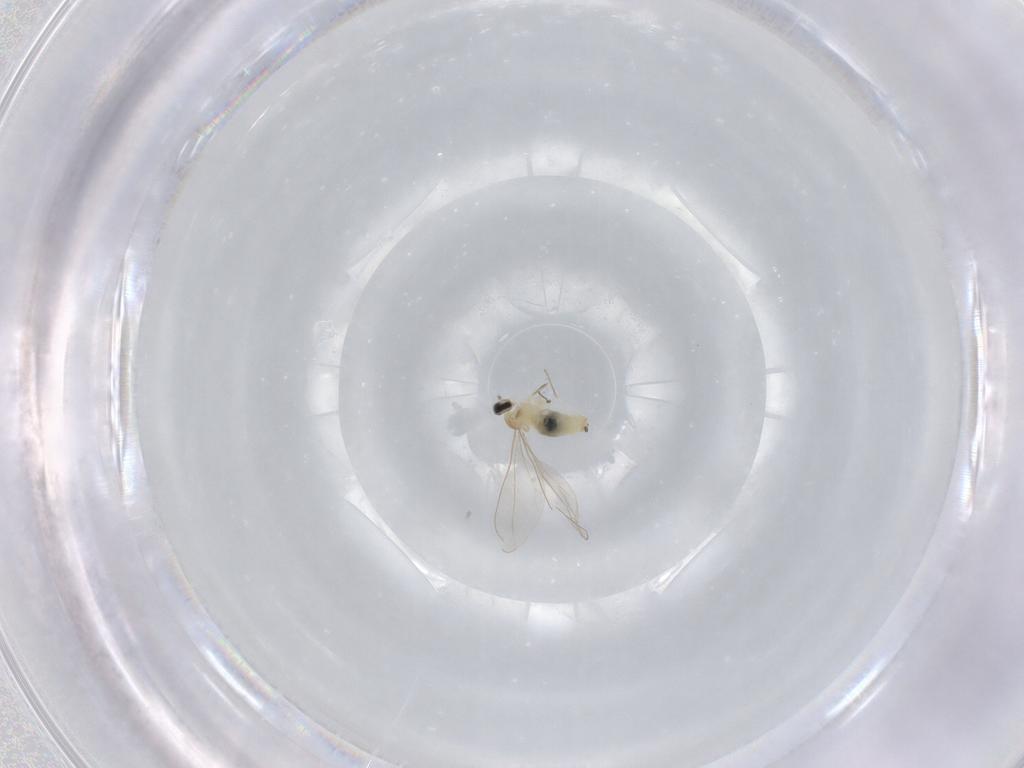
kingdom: Animalia
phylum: Arthropoda
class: Insecta
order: Diptera
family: Cecidomyiidae
